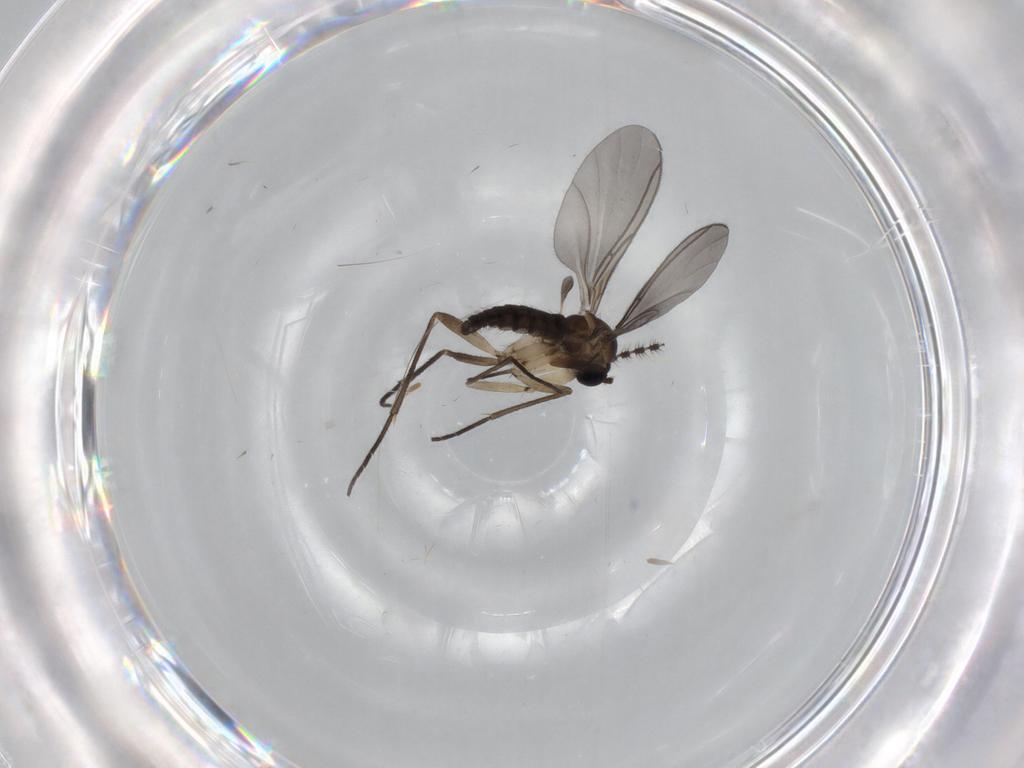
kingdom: Animalia
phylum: Arthropoda
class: Insecta
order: Diptera
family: Sciaridae
